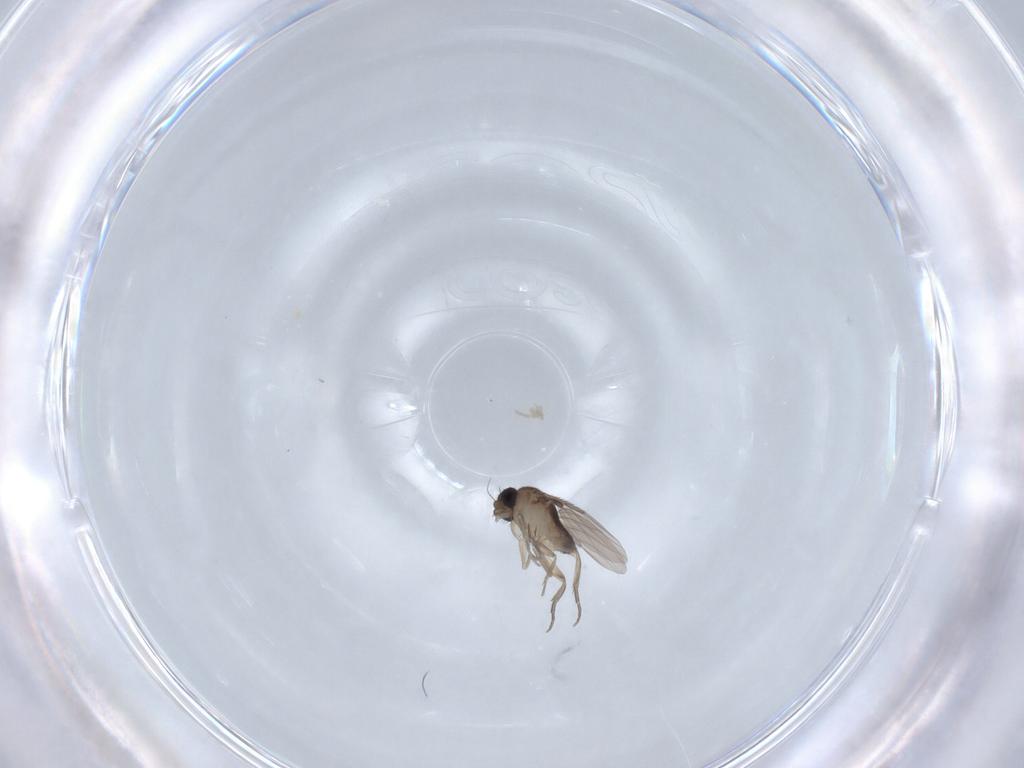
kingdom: Animalia
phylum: Arthropoda
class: Insecta
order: Diptera
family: Phoridae
